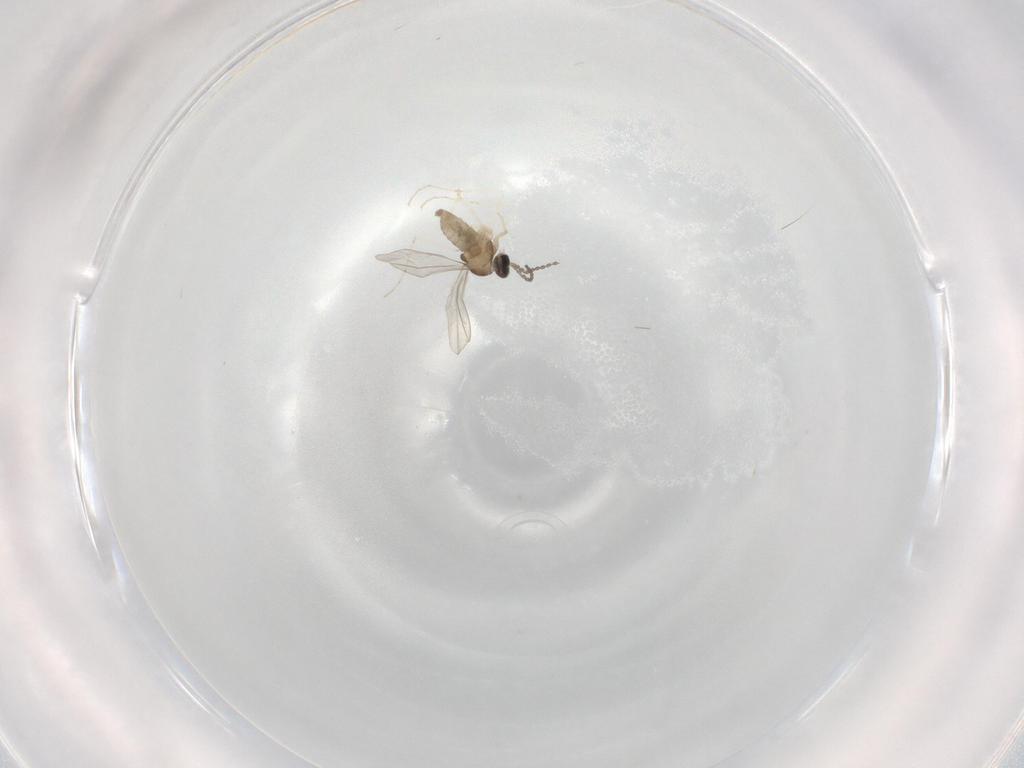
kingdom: Animalia
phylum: Arthropoda
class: Insecta
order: Diptera
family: Cecidomyiidae
